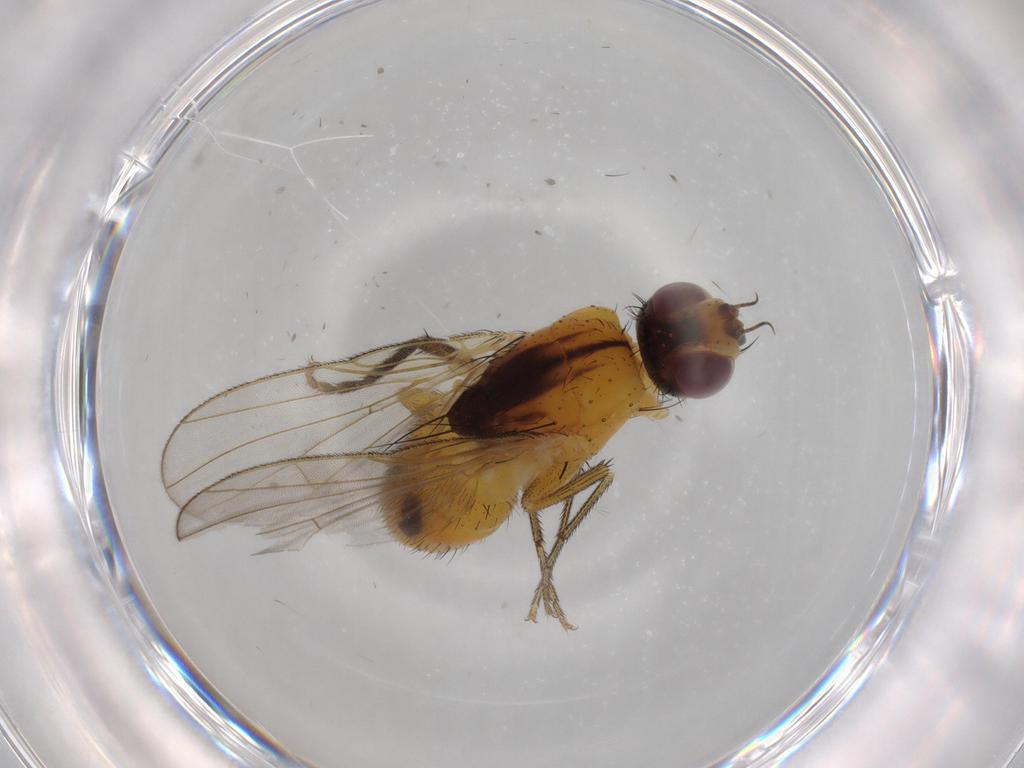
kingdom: Animalia
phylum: Arthropoda
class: Insecta
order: Diptera
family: Muscidae
